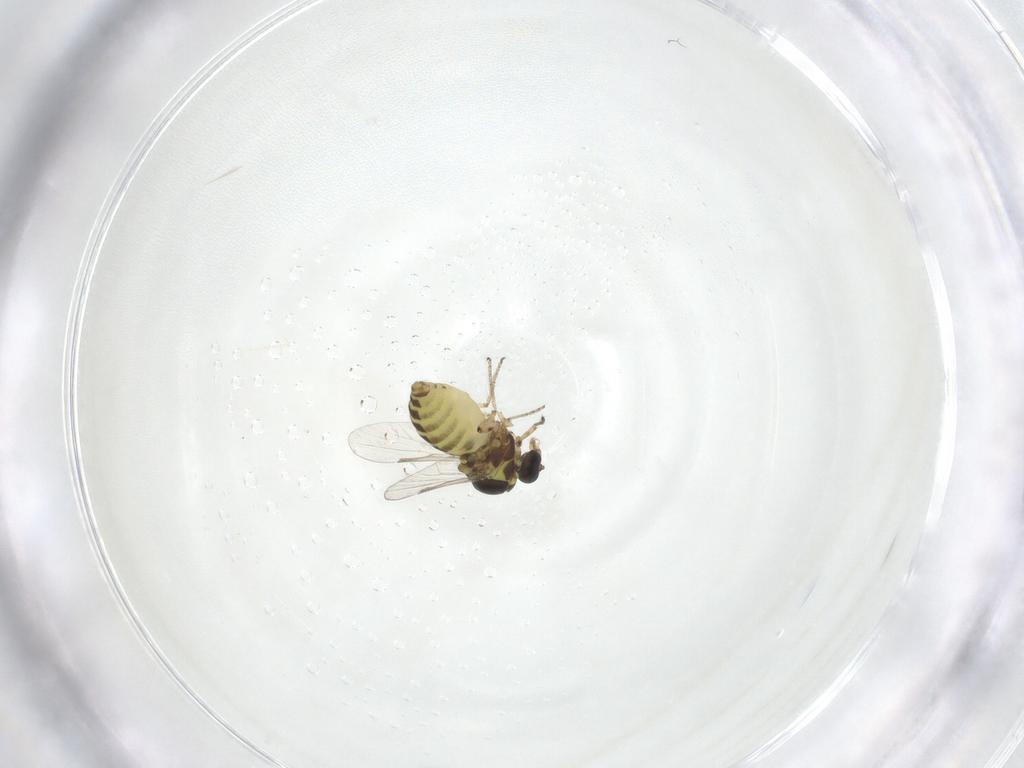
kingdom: Animalia
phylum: Arthropoda
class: Insecta
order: Diptera
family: Ceratopogonidae
